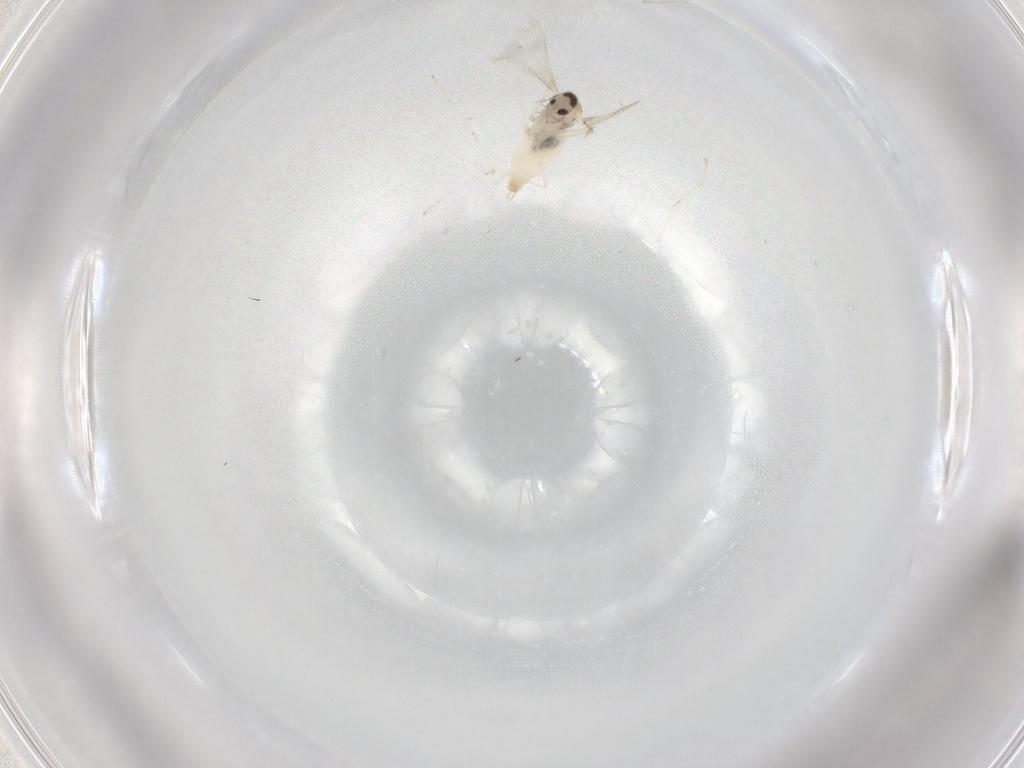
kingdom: Animalia
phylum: Arthropoda
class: Insecta
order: Diptera
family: Cecidomyiidae
